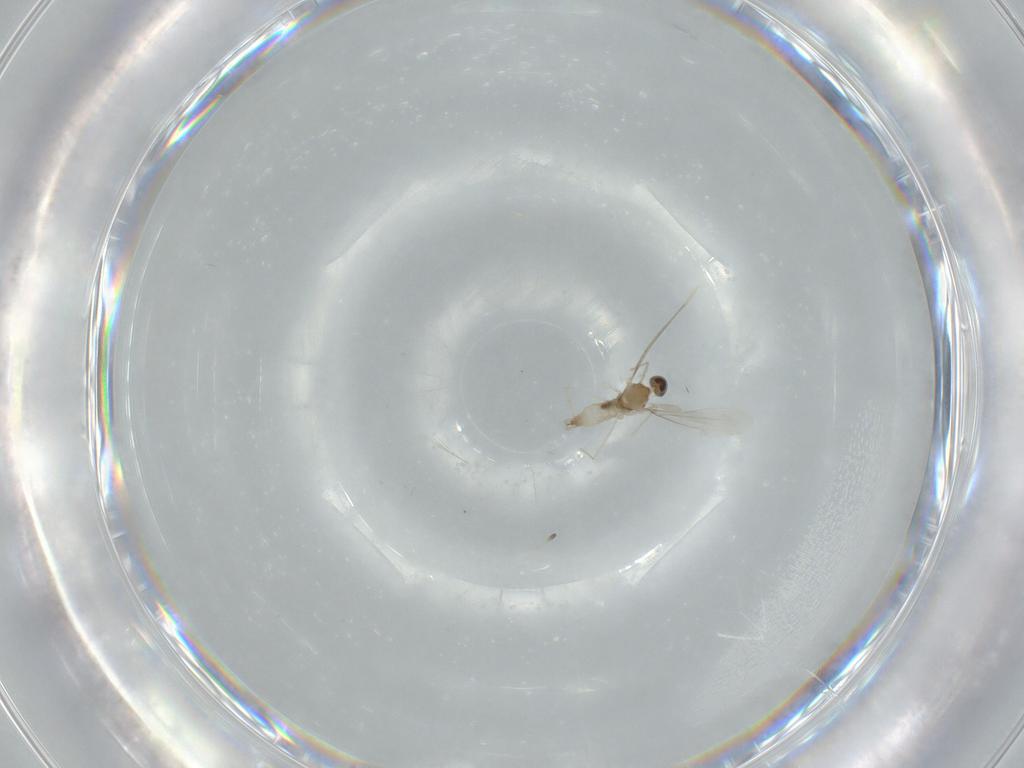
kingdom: Animalia
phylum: Arthropoda
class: Insecta
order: Diptera
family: Cecidomyiidae
